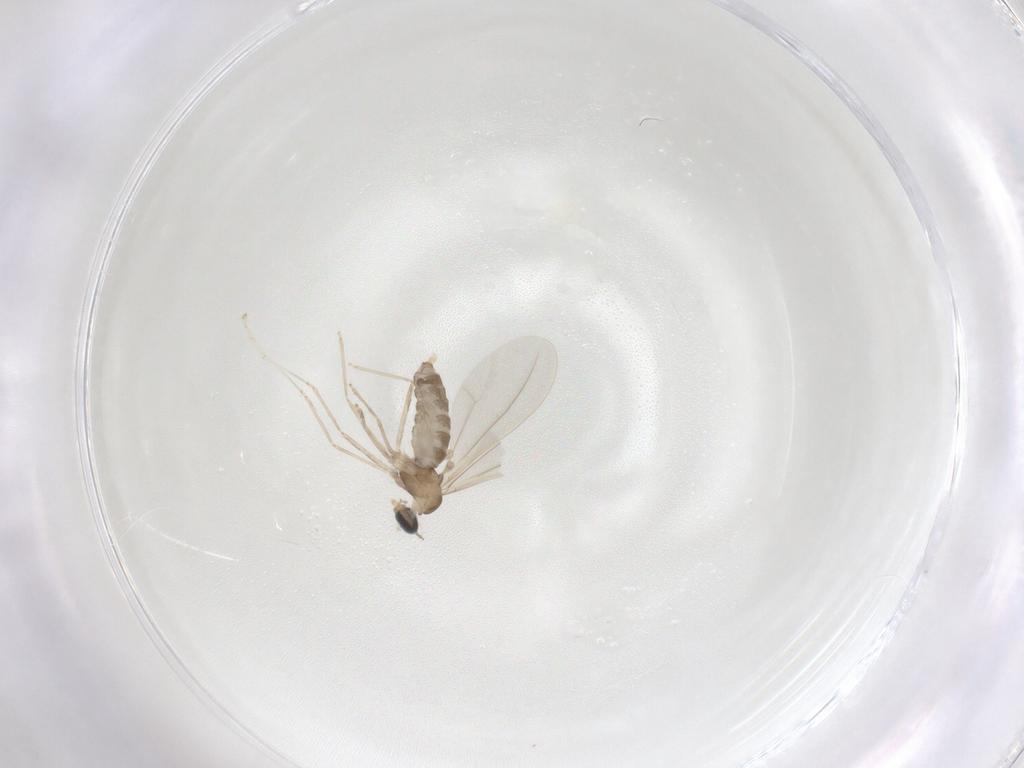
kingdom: Animalia
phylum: Arthropoda
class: Insecta
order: Diptera
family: Cecidomyiidae
